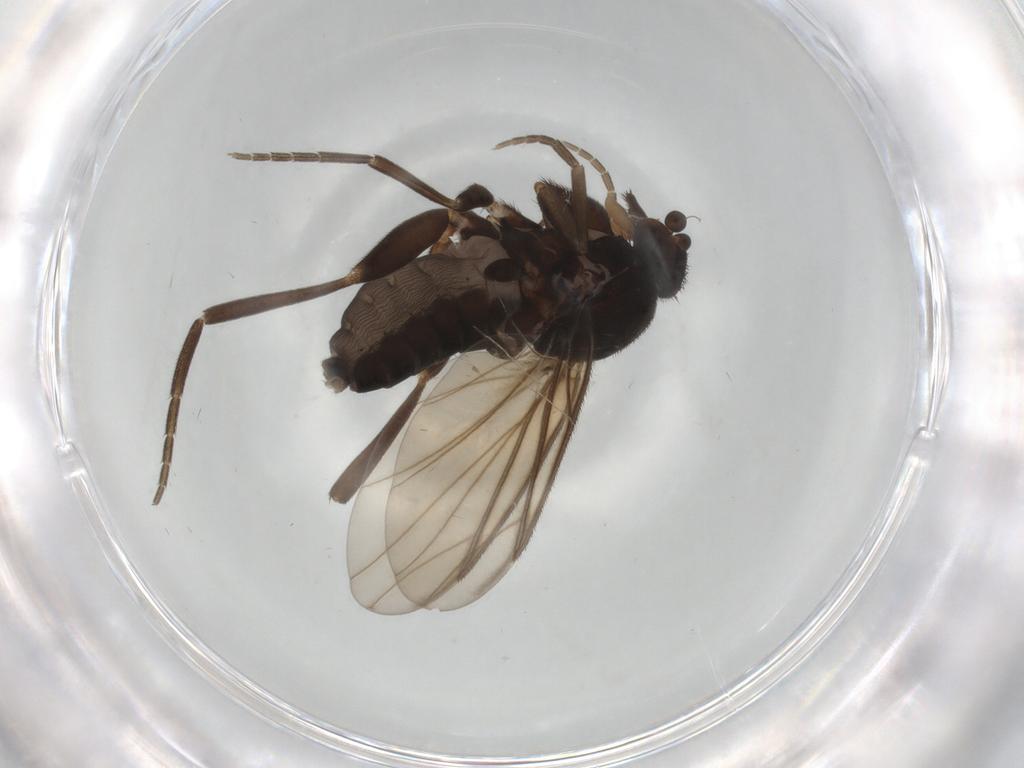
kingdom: Animalia
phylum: Arthropoda
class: Insecta
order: Diptera
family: Phoridae
